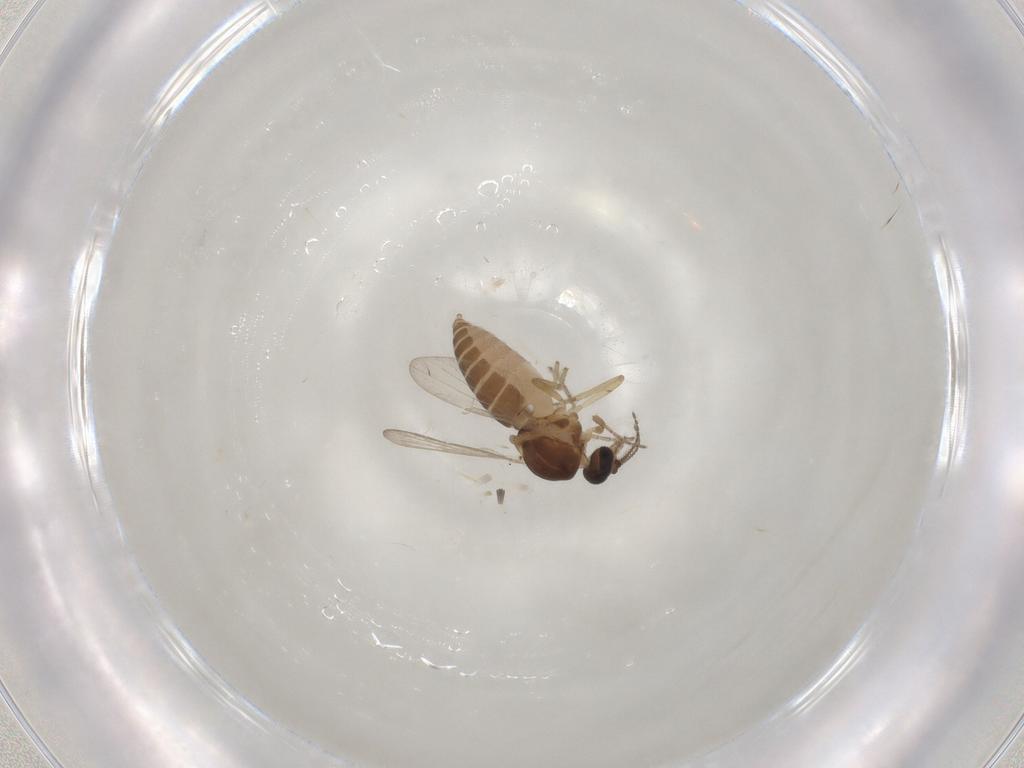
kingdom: Animalia
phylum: Arthropoda
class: Insecta
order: Diptera
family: Ceratopogonidae
